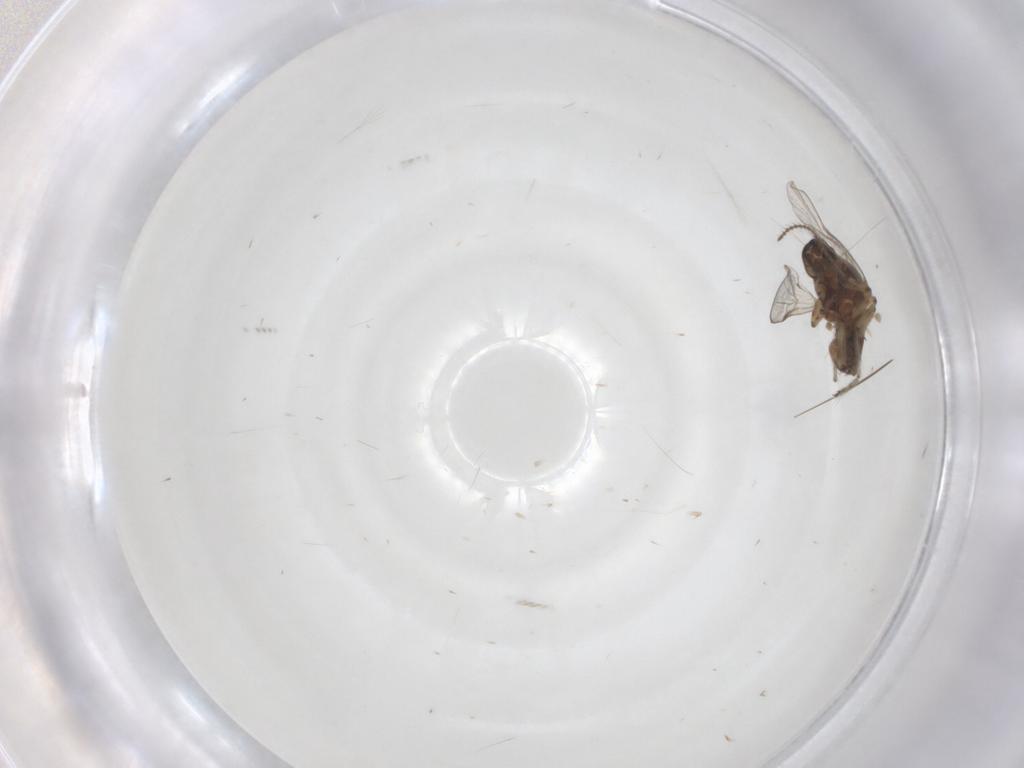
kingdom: Animalia
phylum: Arthropoda
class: Insecta
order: Diptera
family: Ceratopogonidae
